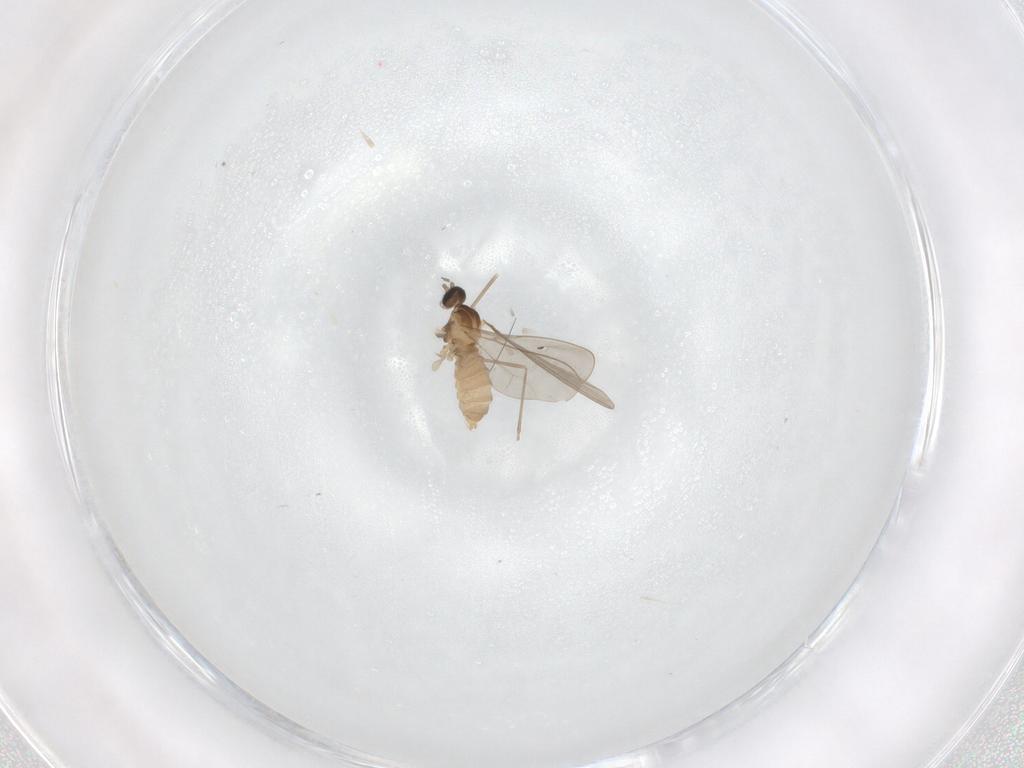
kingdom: Animalia
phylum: Arthropoda
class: Insecta
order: Diptera
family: Cecidomyiidae
